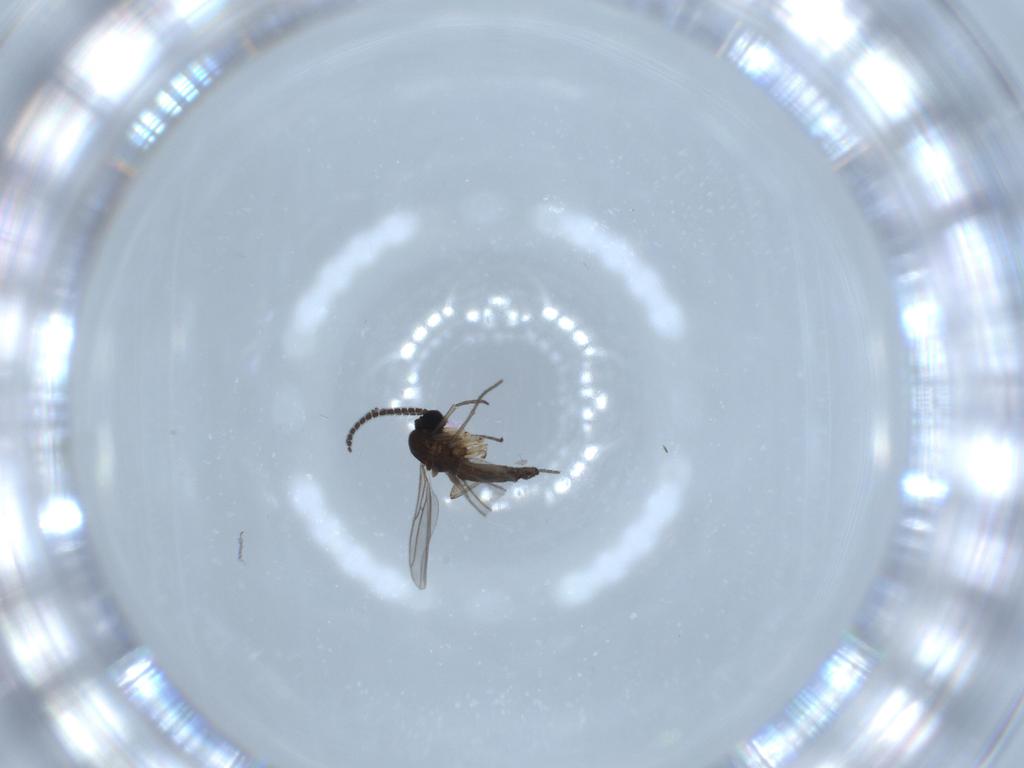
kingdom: Animalia
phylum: Arthropoda
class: Insecta
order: Diptera
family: Sciaridae
